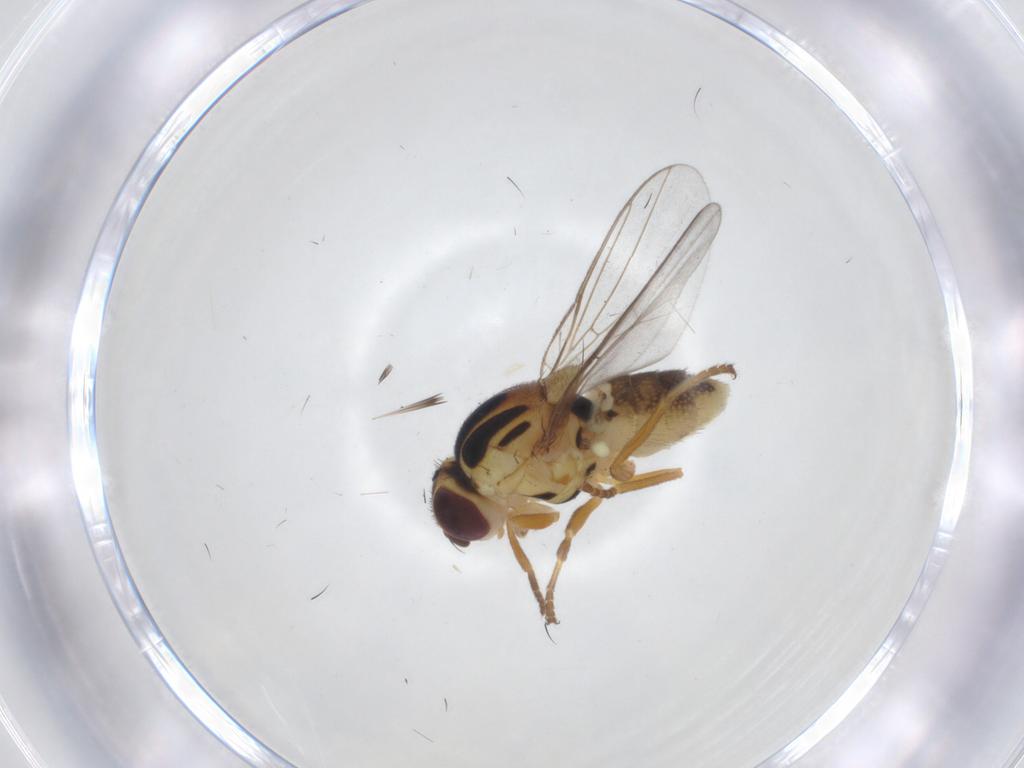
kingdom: Animalia
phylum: Arthropoda
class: Insecta
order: Diptera
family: Chloropidae
